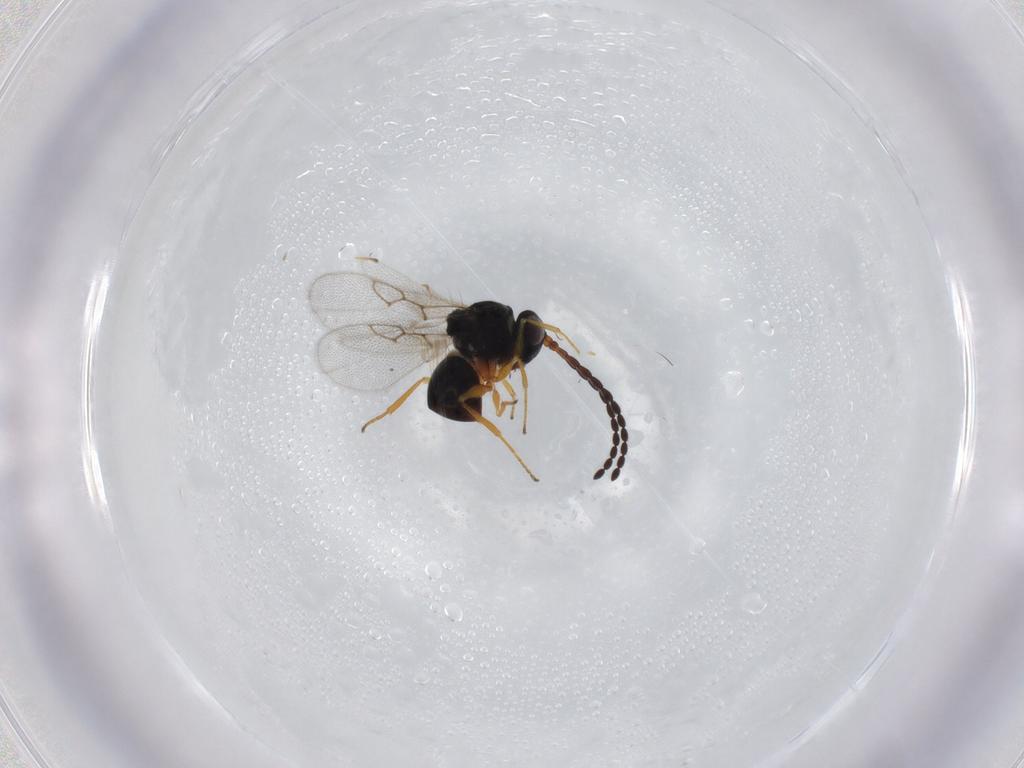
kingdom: Animalia
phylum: Arthropoda
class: Insecta
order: Hymenoptera
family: Figitidae
